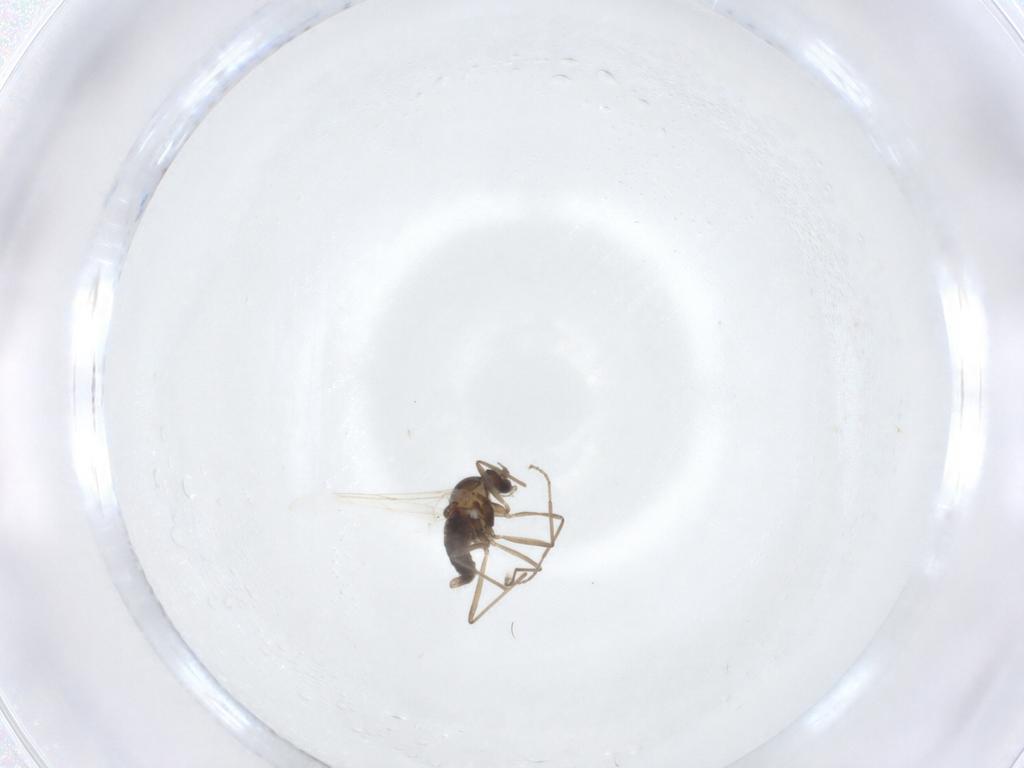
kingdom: Animalia
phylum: Arthropoda
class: Insecta
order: Diptera
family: Cecidomyiidae
